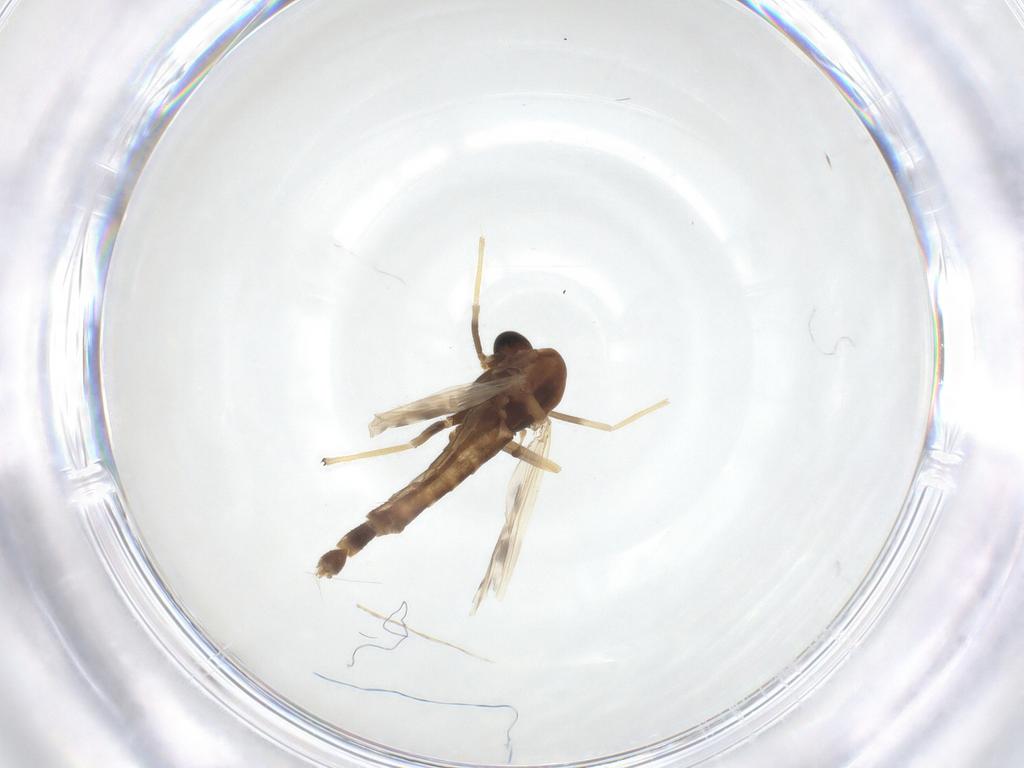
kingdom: Animalia
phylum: Arthropoda
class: Insecta
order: Diptera
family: Chironomidae
